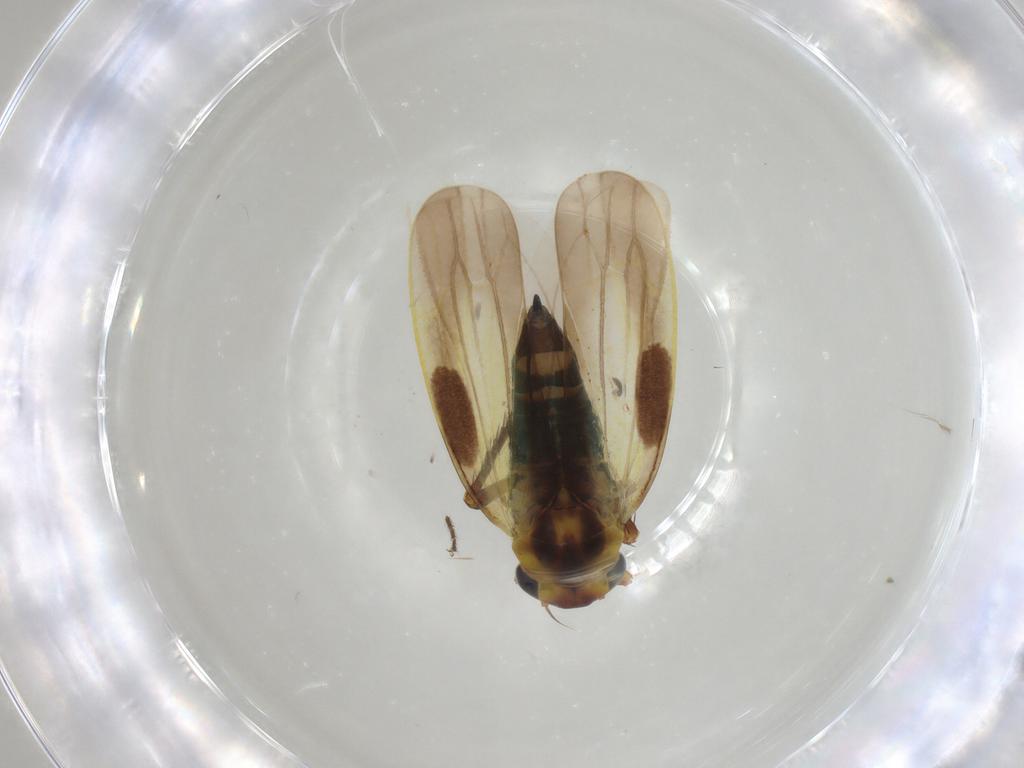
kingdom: Animalia
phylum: Arthropoda
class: Insecta
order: Diptera
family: Hybotidae
